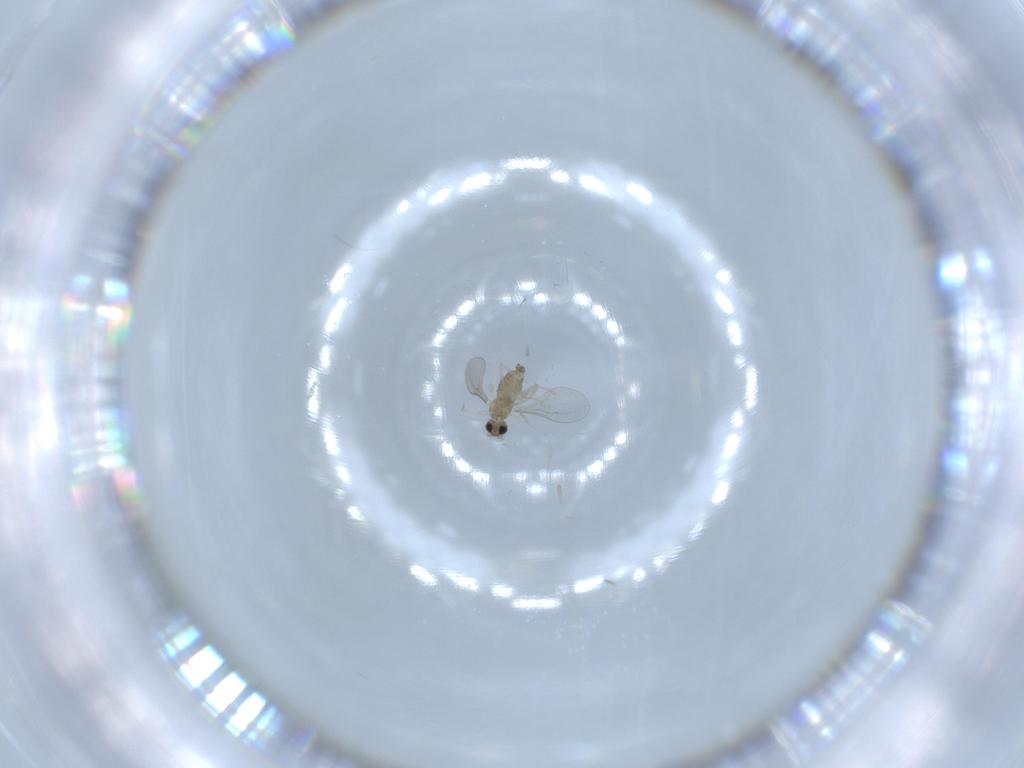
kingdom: Animalia
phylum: Arthropoda
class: Insecta
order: Diptera
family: Cecidomyiidae
